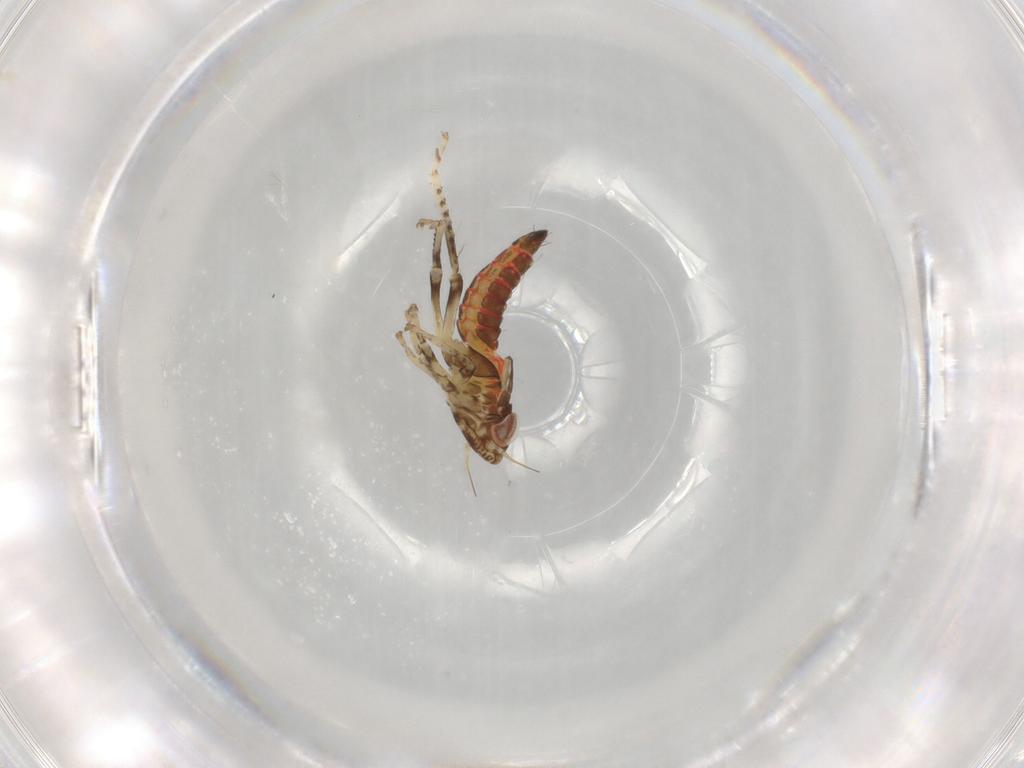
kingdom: Animalia
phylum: Arthropoda
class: Insecta
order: Hemiptera
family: Cicadellidae
